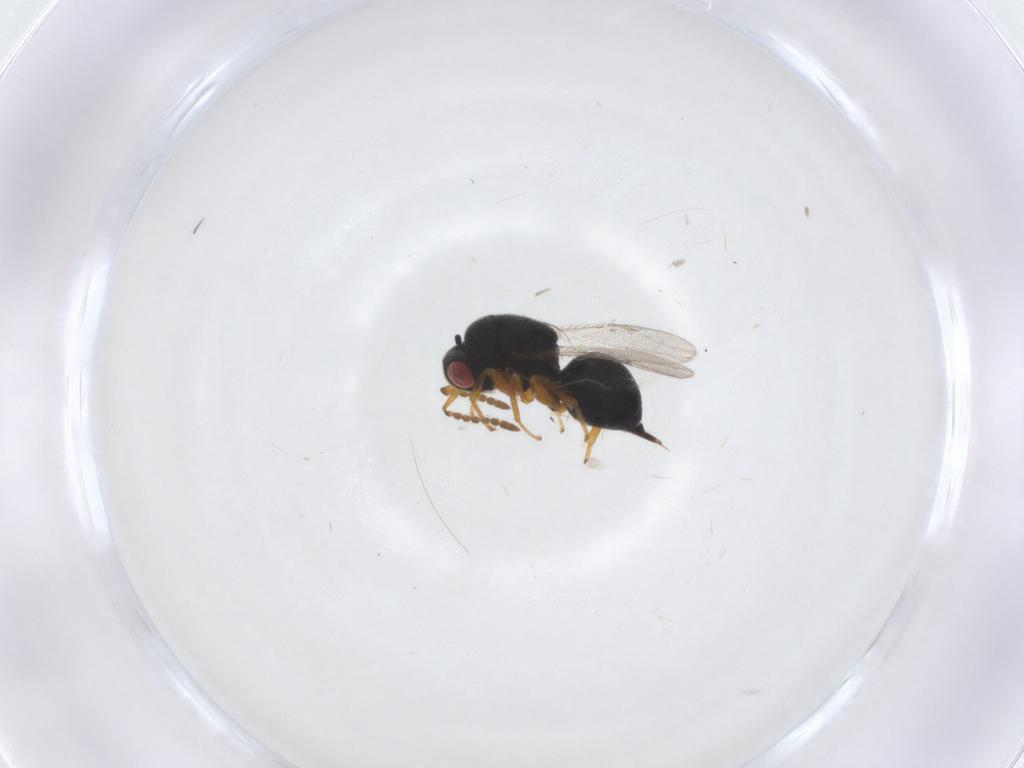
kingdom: Animalia
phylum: Arthropoda
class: Insecta
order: Hymenoptera
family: Eurytomidae
